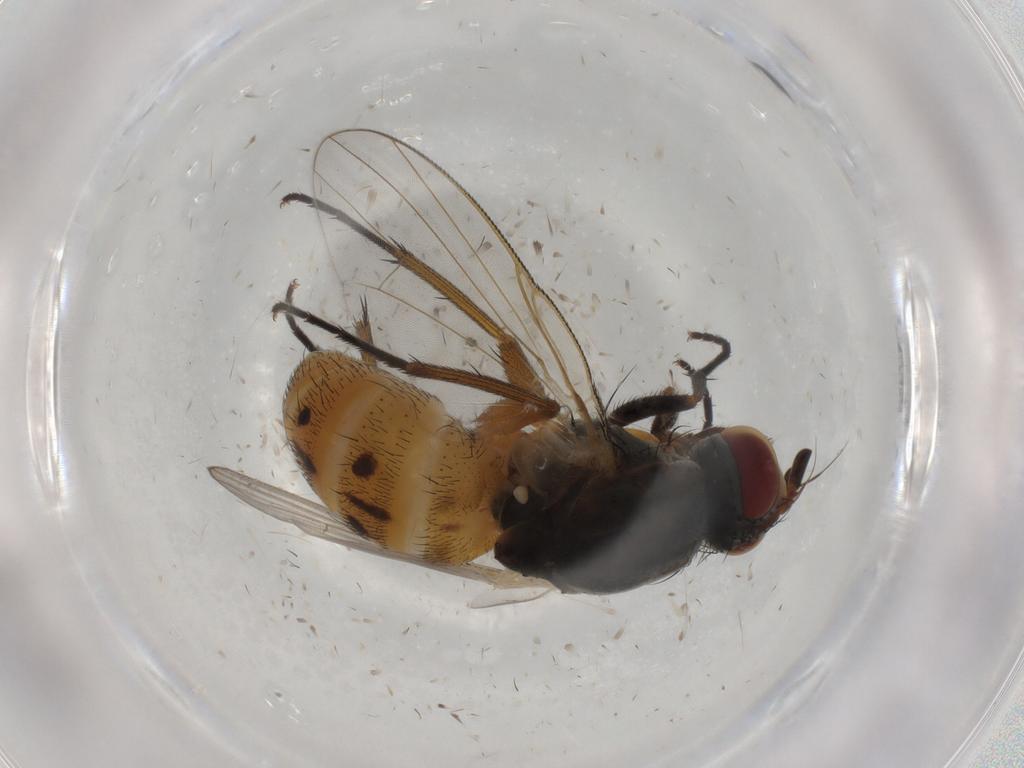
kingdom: Animalia
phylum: Arthropoda
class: Insecta
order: Diptera
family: Muscidae
